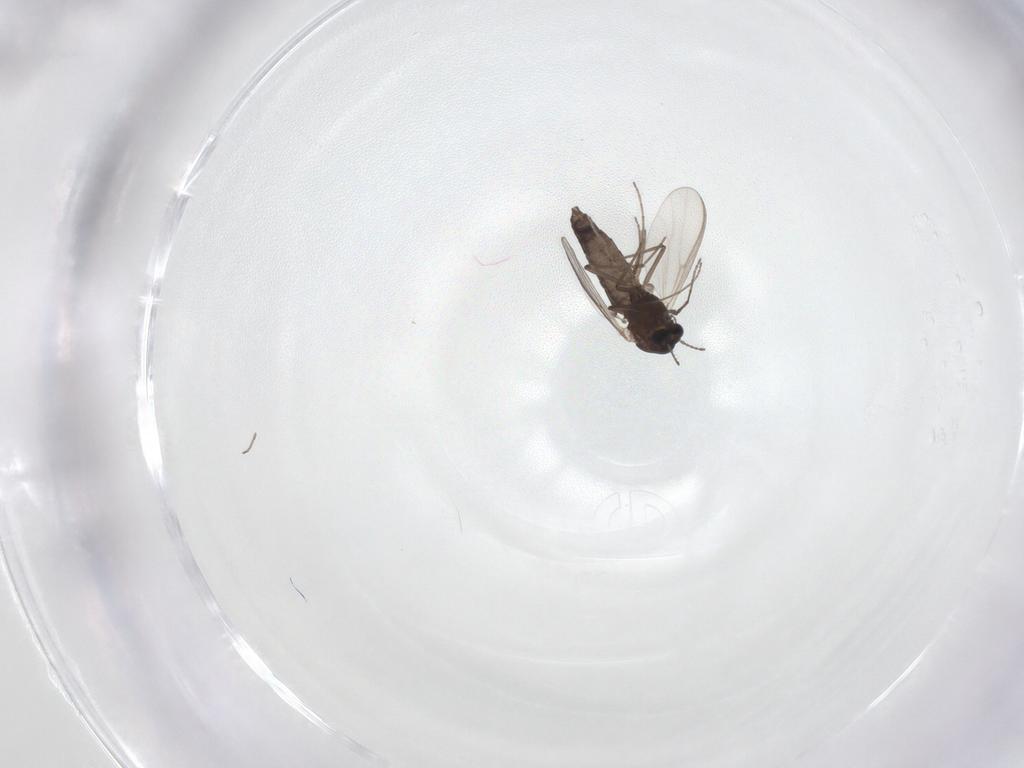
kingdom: Animalia
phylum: Arthropoda
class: Insecta
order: Diptera
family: Chironomidae
